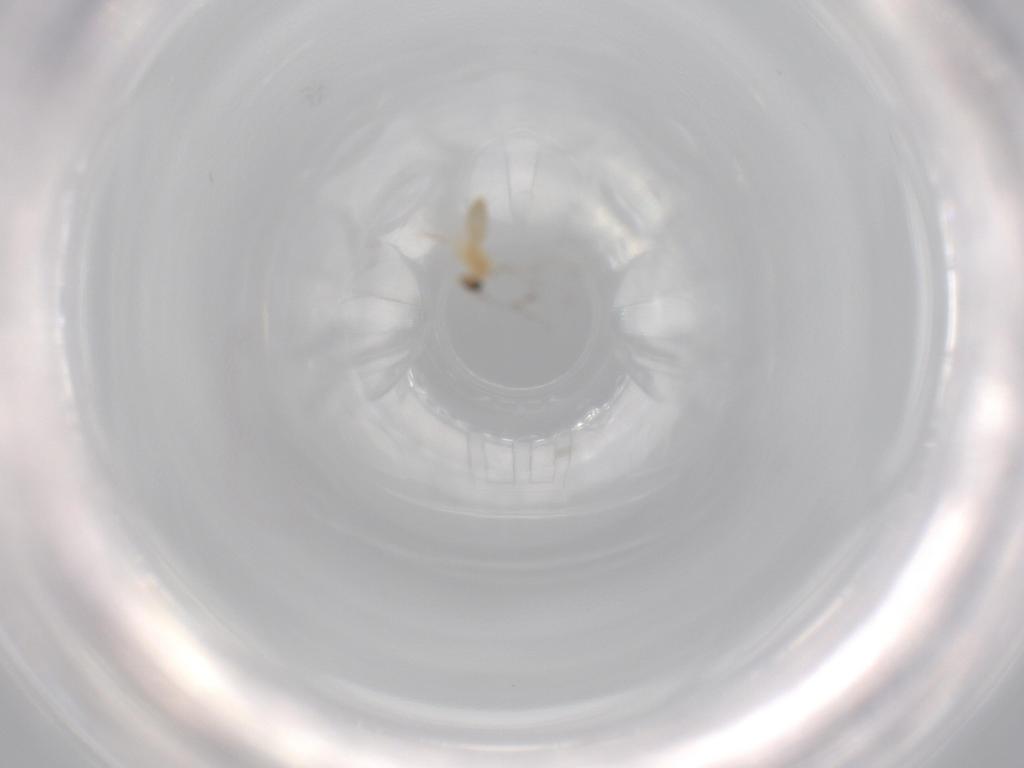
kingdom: Animalia
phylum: Arthropoda
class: Insecta
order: Diptera
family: Cecidomyiidae
